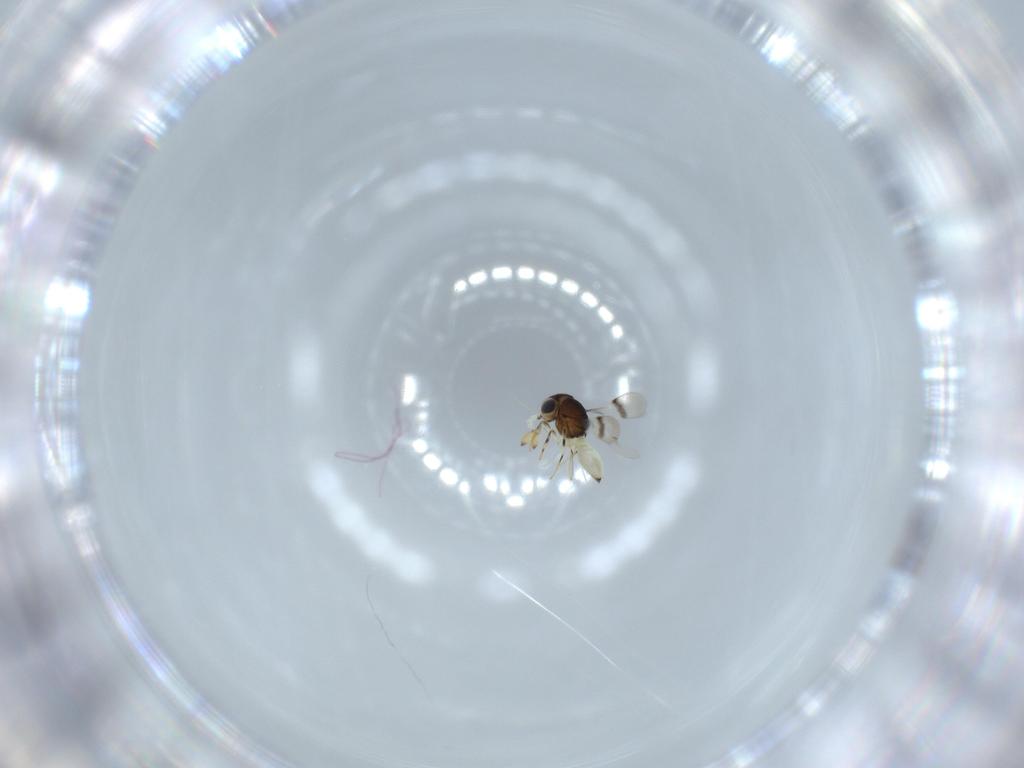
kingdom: Animalia
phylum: Arthropoda
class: Insecta
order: Hymenoptera
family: Scelionidae
